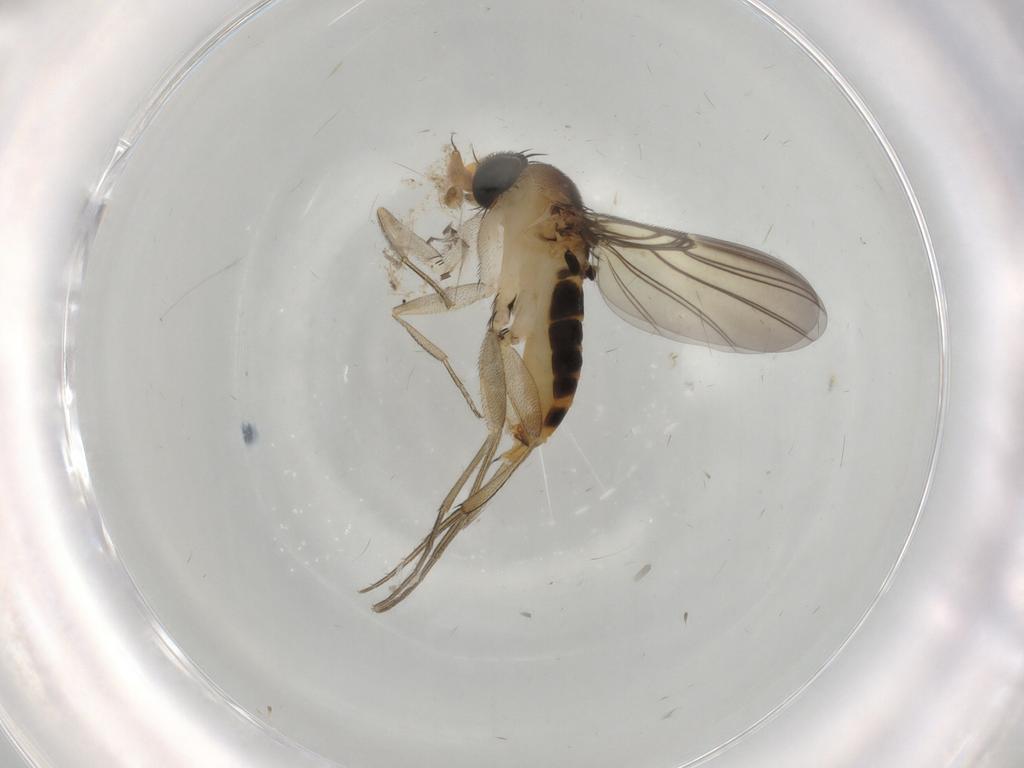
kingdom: Animalia
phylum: Arthropoda
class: Insecta
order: Diptera
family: Phoridae
